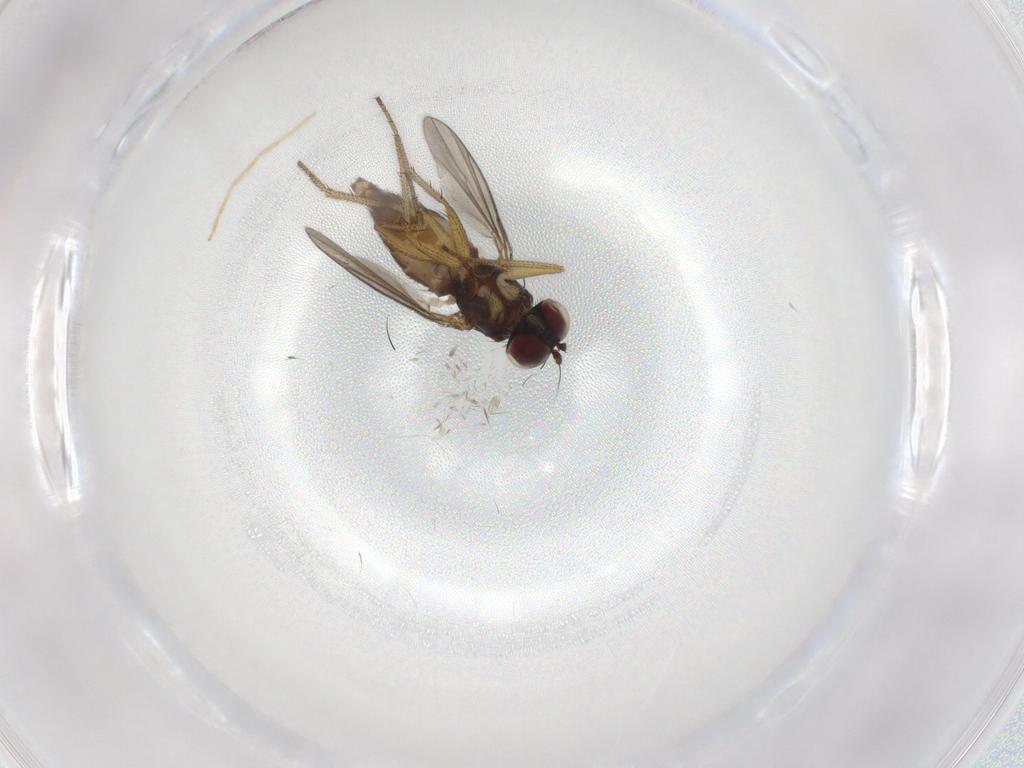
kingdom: Animalia
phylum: Arthropoda
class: Insecta
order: Diptera
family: Dolichopodidae
